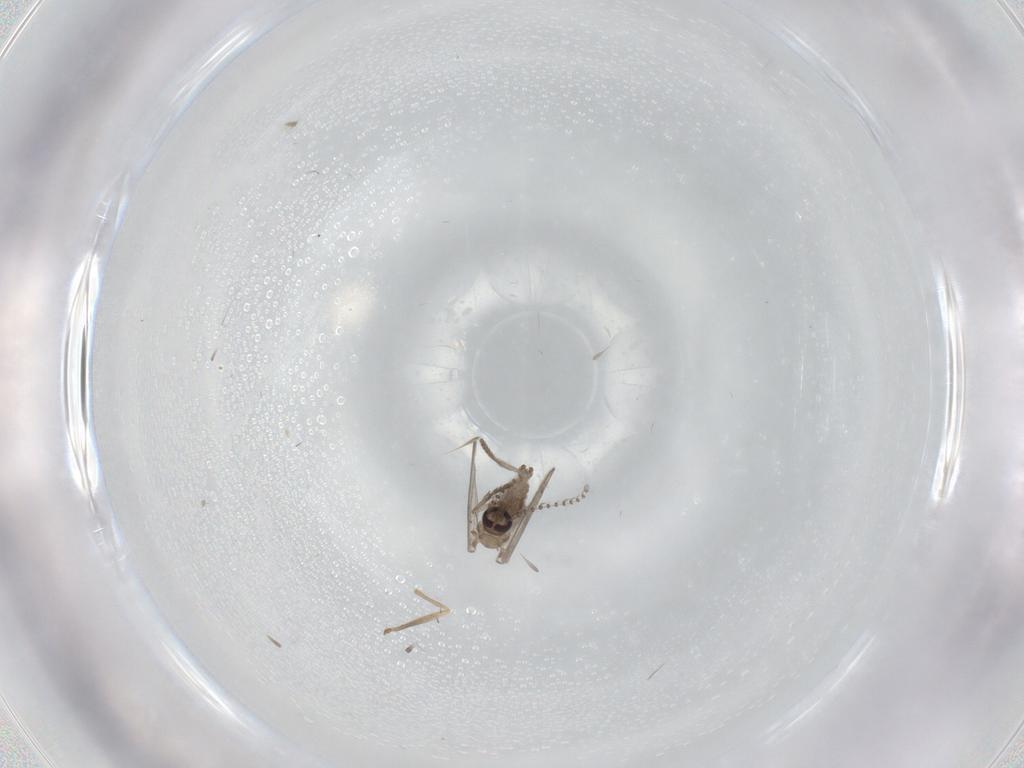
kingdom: Animalia
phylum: Arthropoda
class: Insecta
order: Diptera
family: Psychodidae
